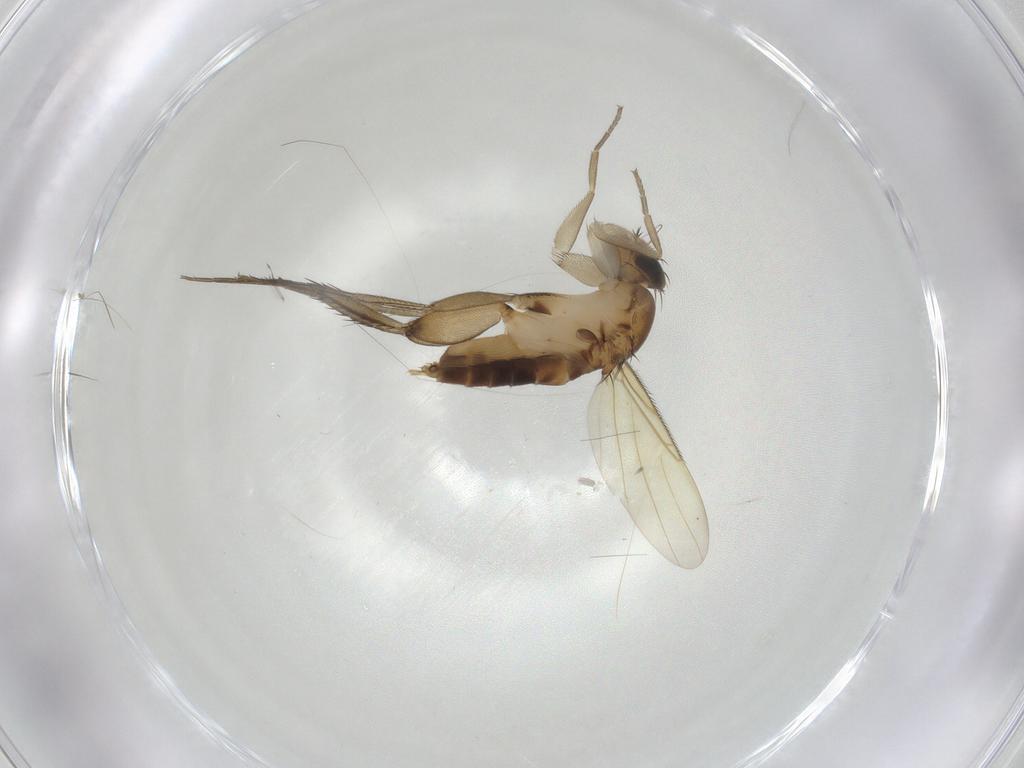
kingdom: Animalia
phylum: Arthropoda
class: Insecta
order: Diptera
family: Phoridae
